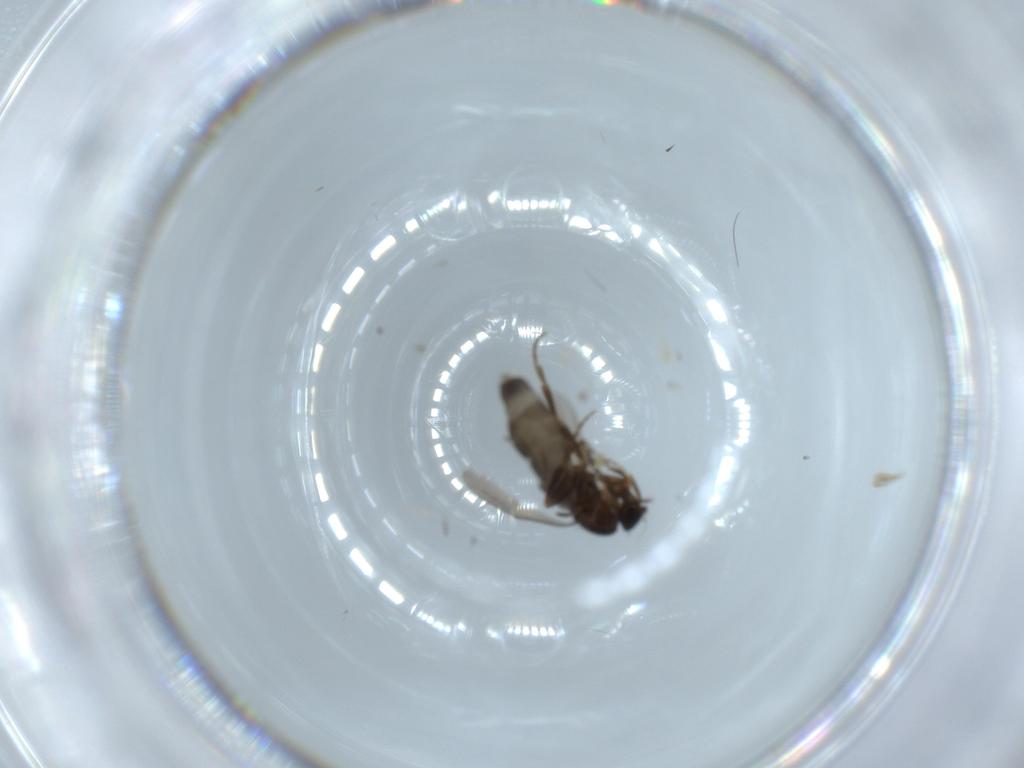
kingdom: Animalia
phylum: Arthropoda
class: Insecta
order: Diptera
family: Phoridae
